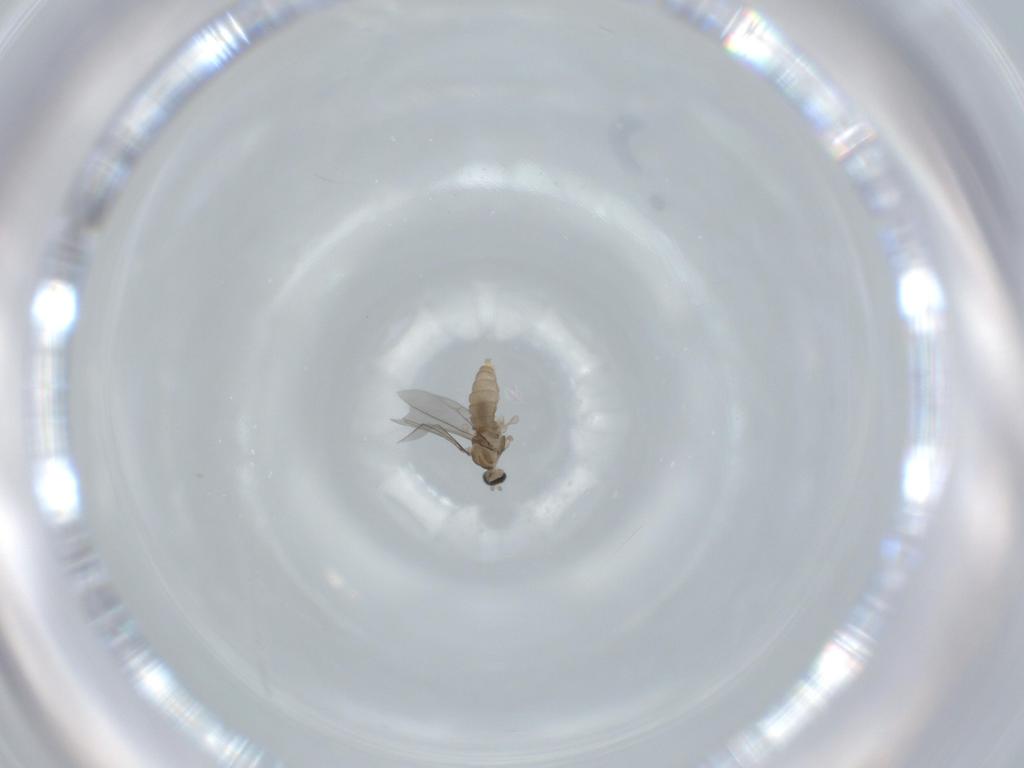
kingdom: Animalia
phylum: Arthropoda
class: Insecta
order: Diptera
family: Cecidomyiidae
